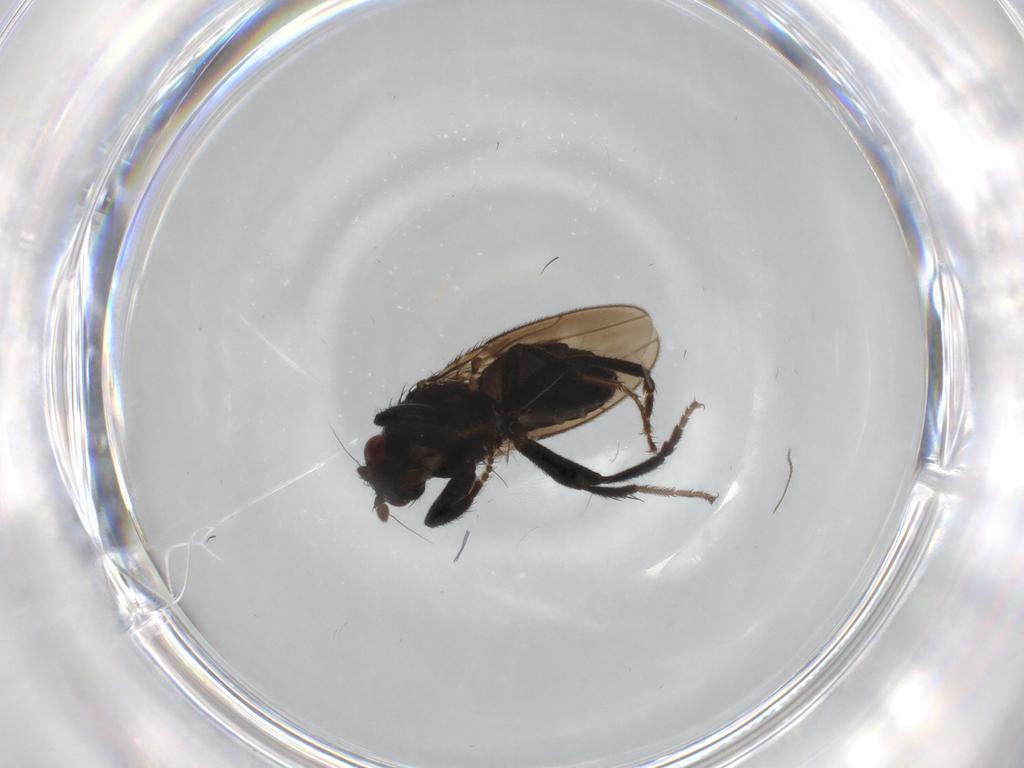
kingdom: Animalia
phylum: Arthropoda
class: Insecta
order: Diptera
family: Sphaeroceridae
